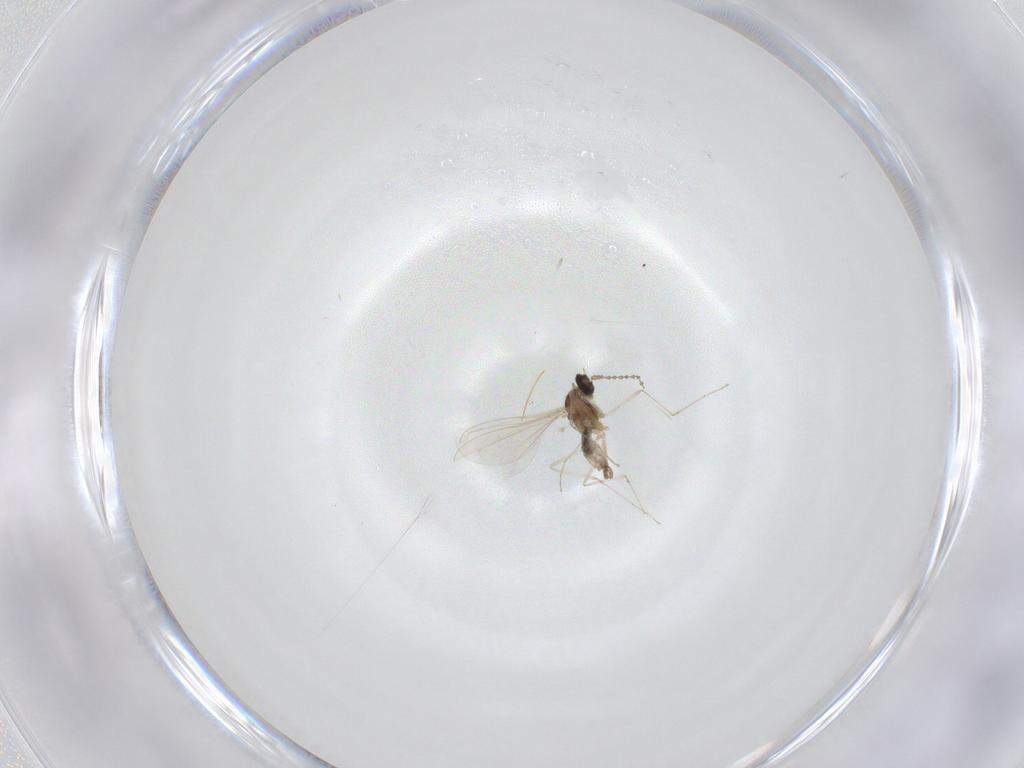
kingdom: Animalia
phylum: Arthropoda
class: Insecta
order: Diptera
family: Cecidomyiidae
